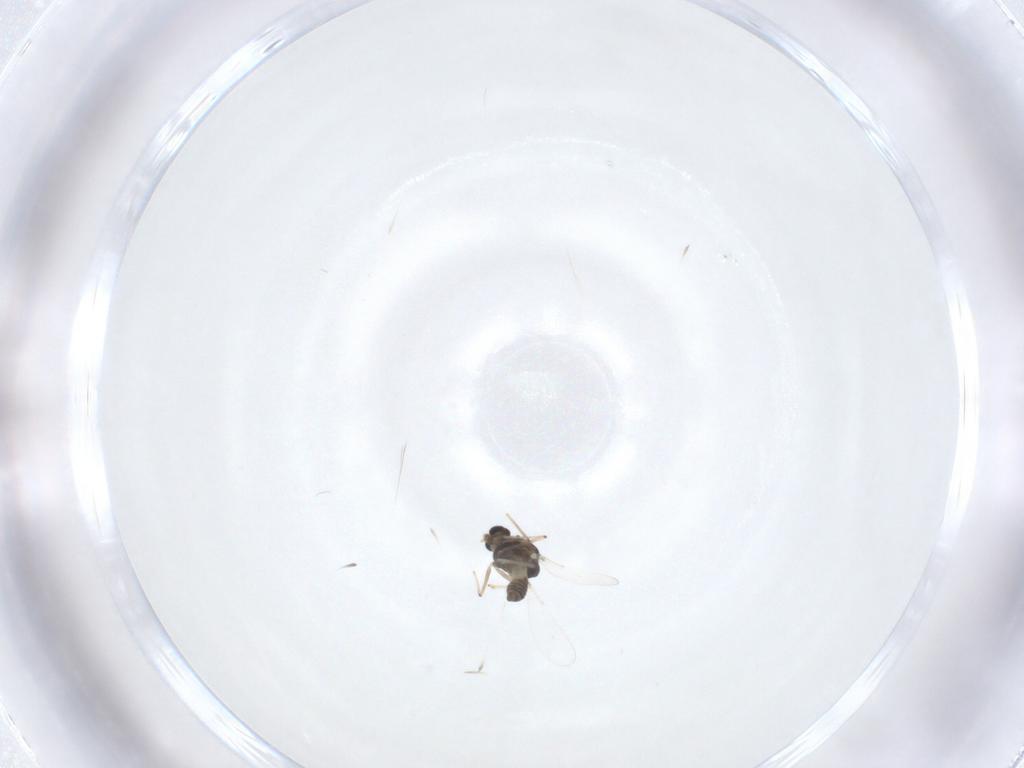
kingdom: Animalia
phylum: Arthropoda
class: Insecta
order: Diptera
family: Chironomidae
